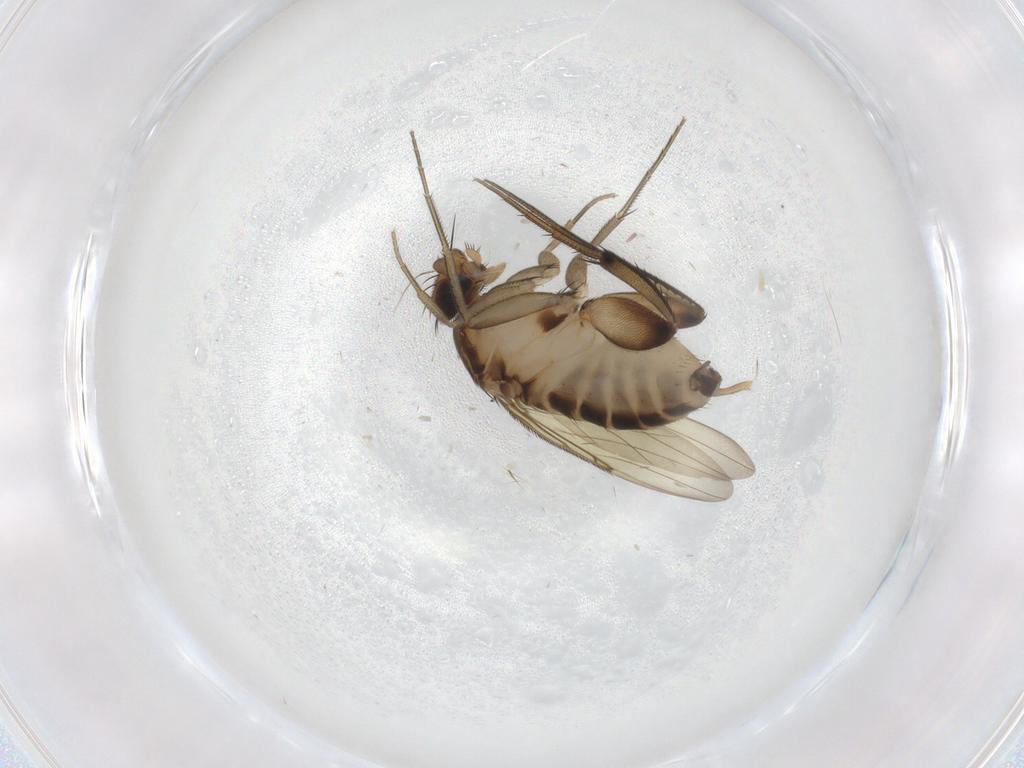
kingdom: Animalia
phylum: Arthropoda
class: Insecta
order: Diptera
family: Phoridae
